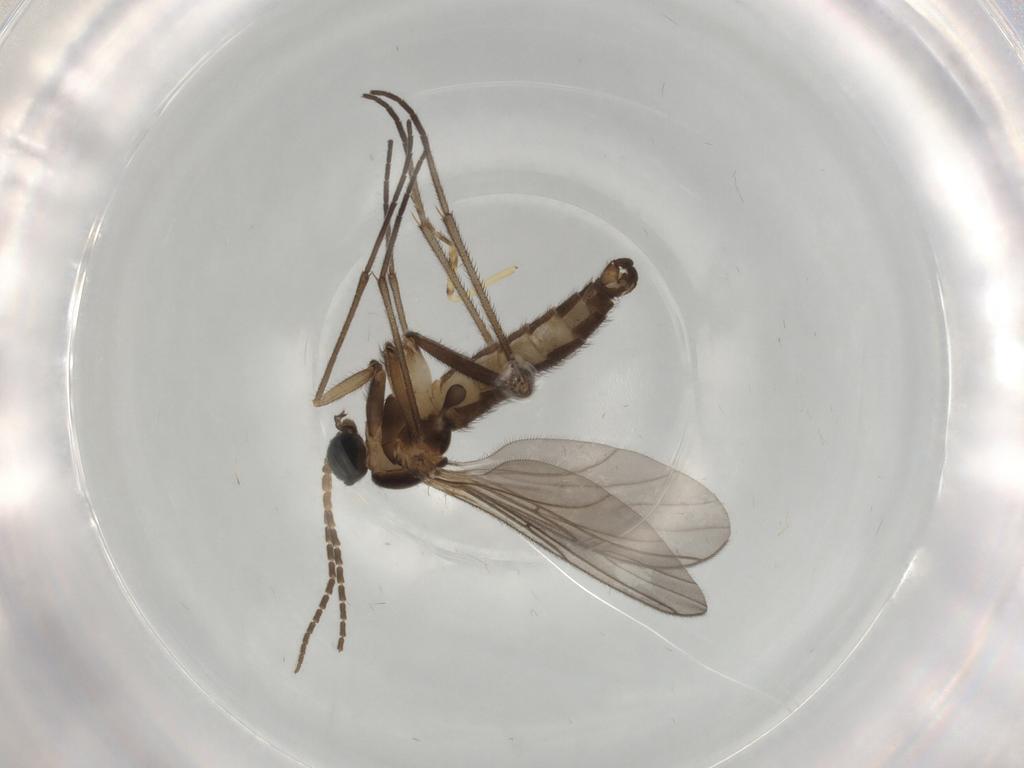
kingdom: Animalia
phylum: Arthropoda
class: Insecta
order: Diptera
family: Sciaridae
